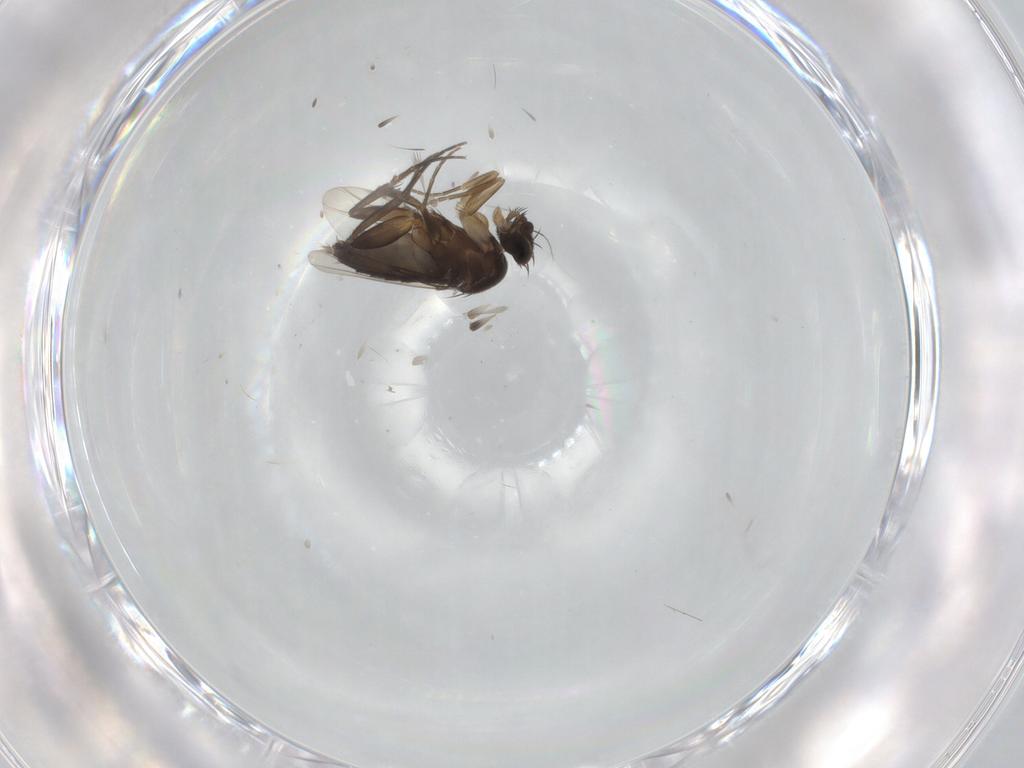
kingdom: Animalia
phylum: Arthropoda
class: Insecta
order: Diptera
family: Phoridae
